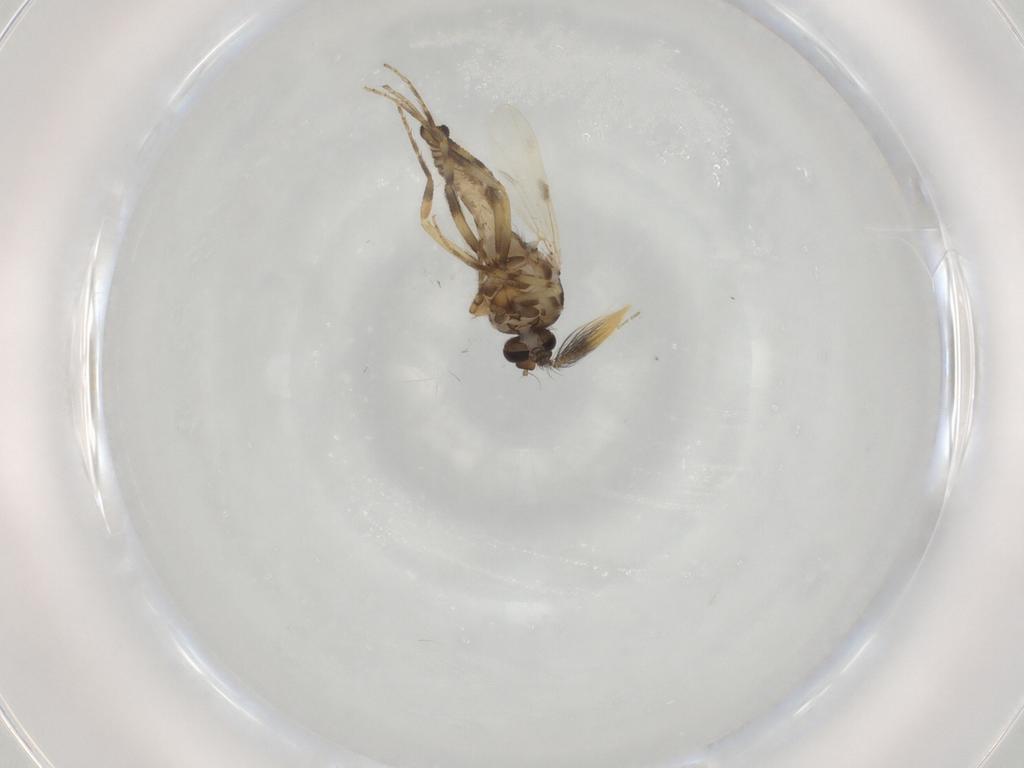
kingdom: Animalia
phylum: Arthropoda
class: Insecta
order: Diptera
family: Ceratopogonidae
